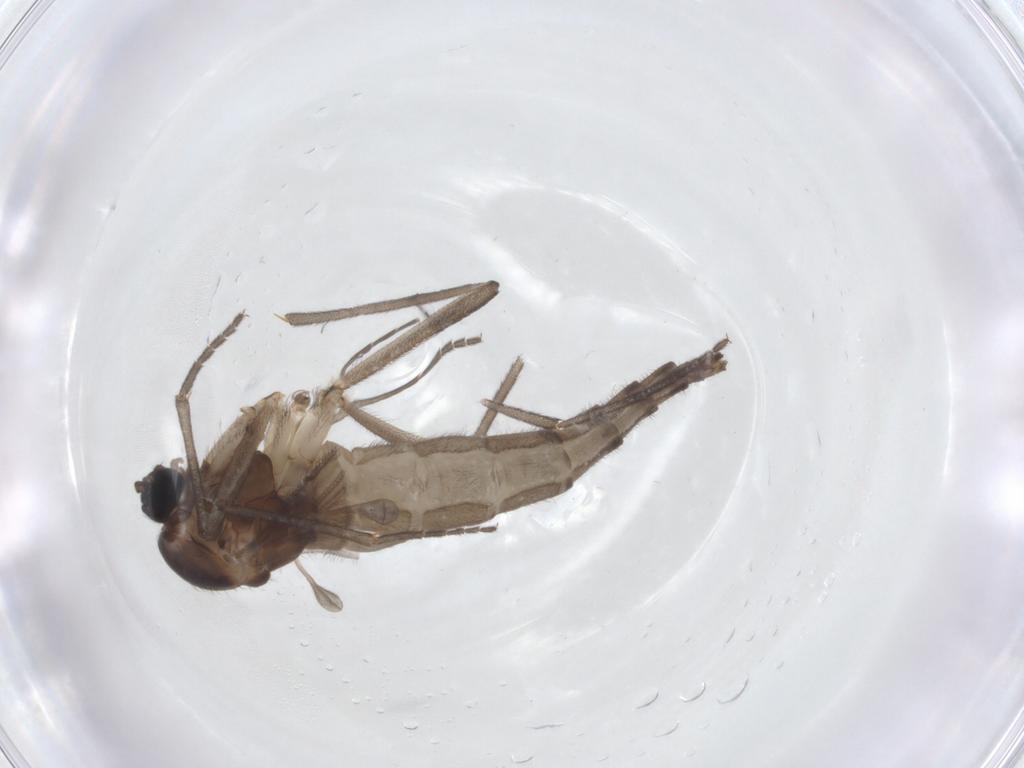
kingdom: Animalia
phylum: Arthropoda
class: Insecta
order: Diptera
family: Sciaridae
